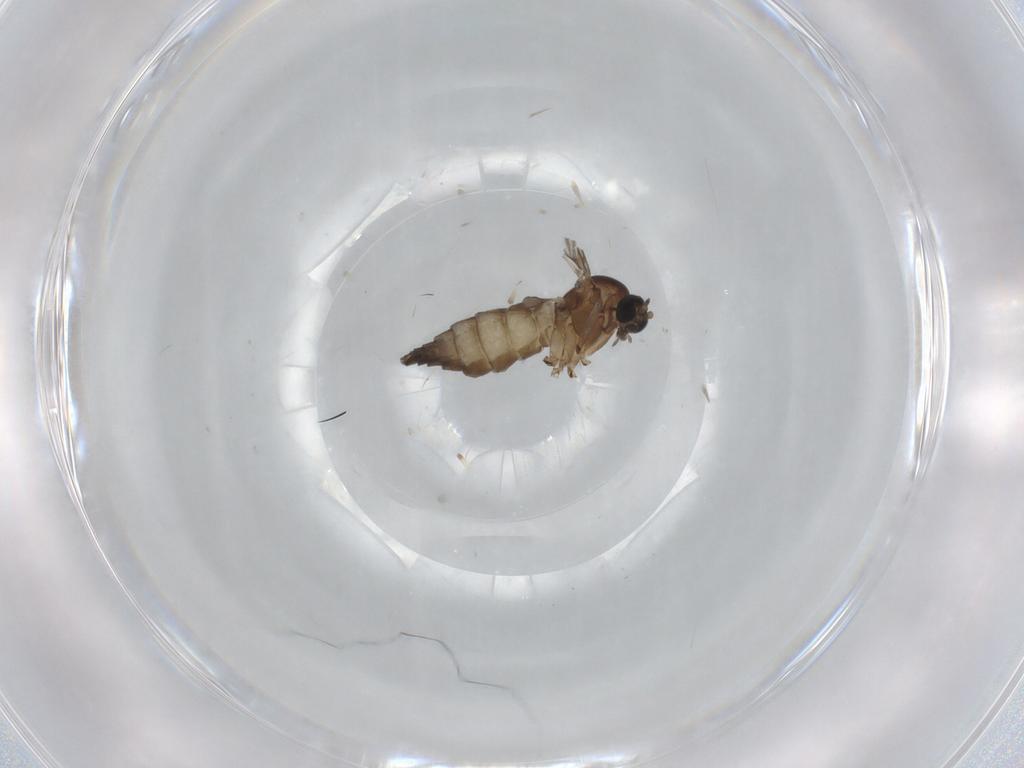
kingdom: Animalia
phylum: Arthropoda
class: Insecta
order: Diptera
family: Sciaridae
